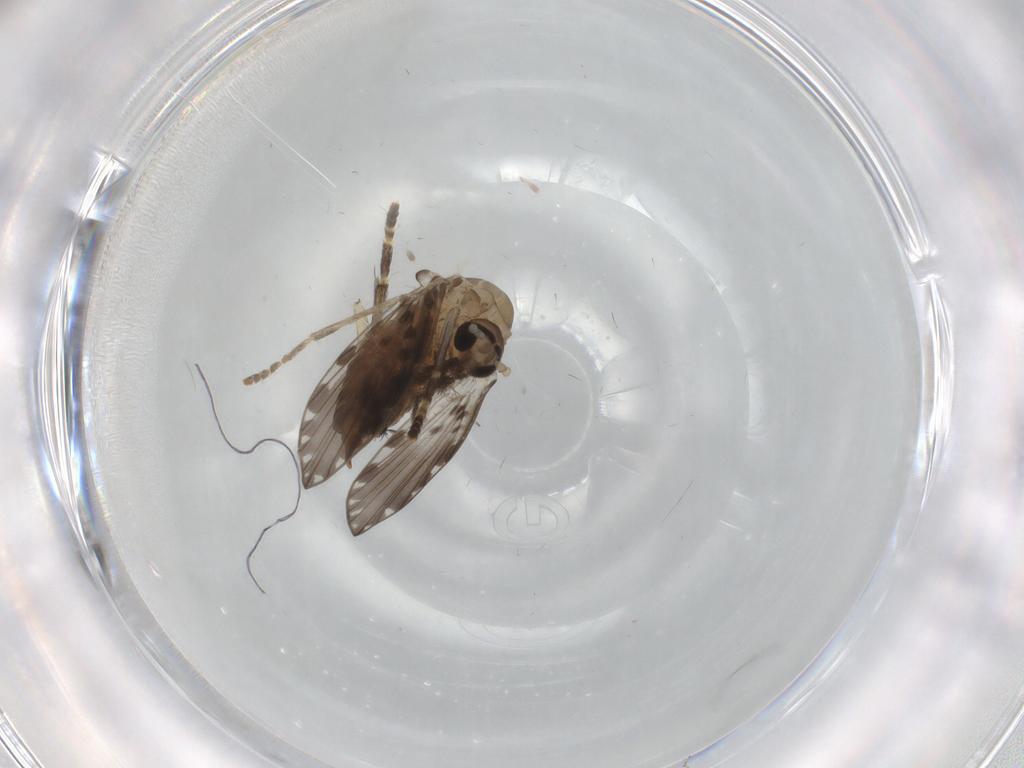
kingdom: Animalia
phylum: Arthropoda
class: Insecta
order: Diptera
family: Psychodidae
